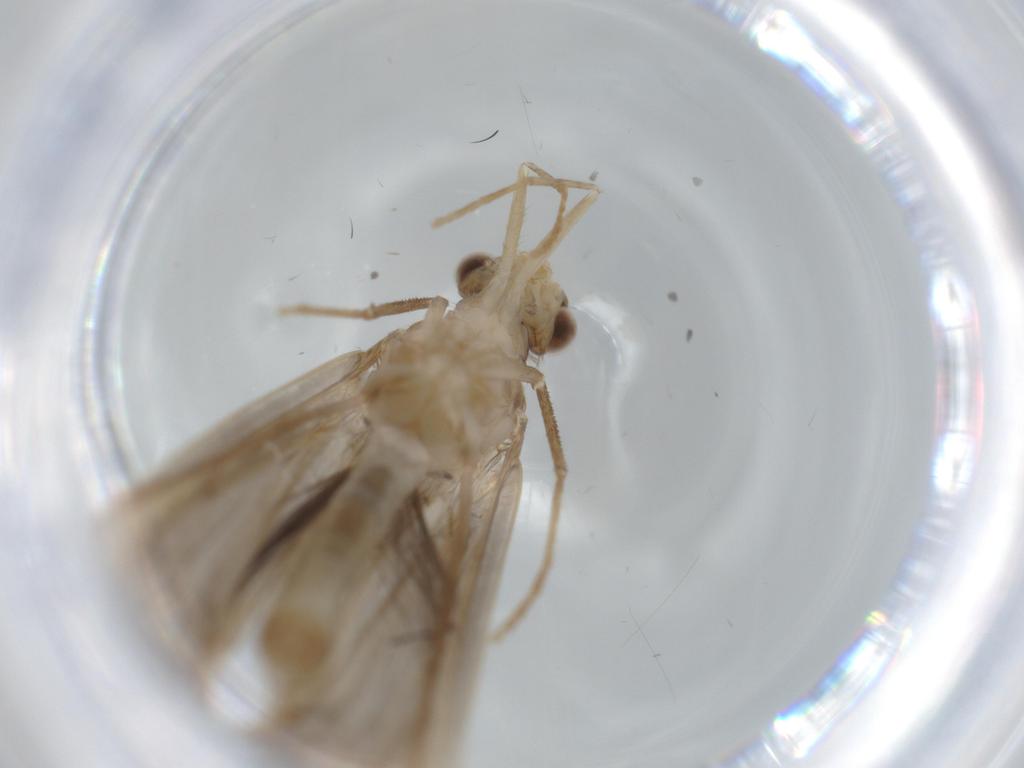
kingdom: Animalia
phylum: Arthropoda
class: Insecta
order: Trichoptera
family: Leptoceridae
